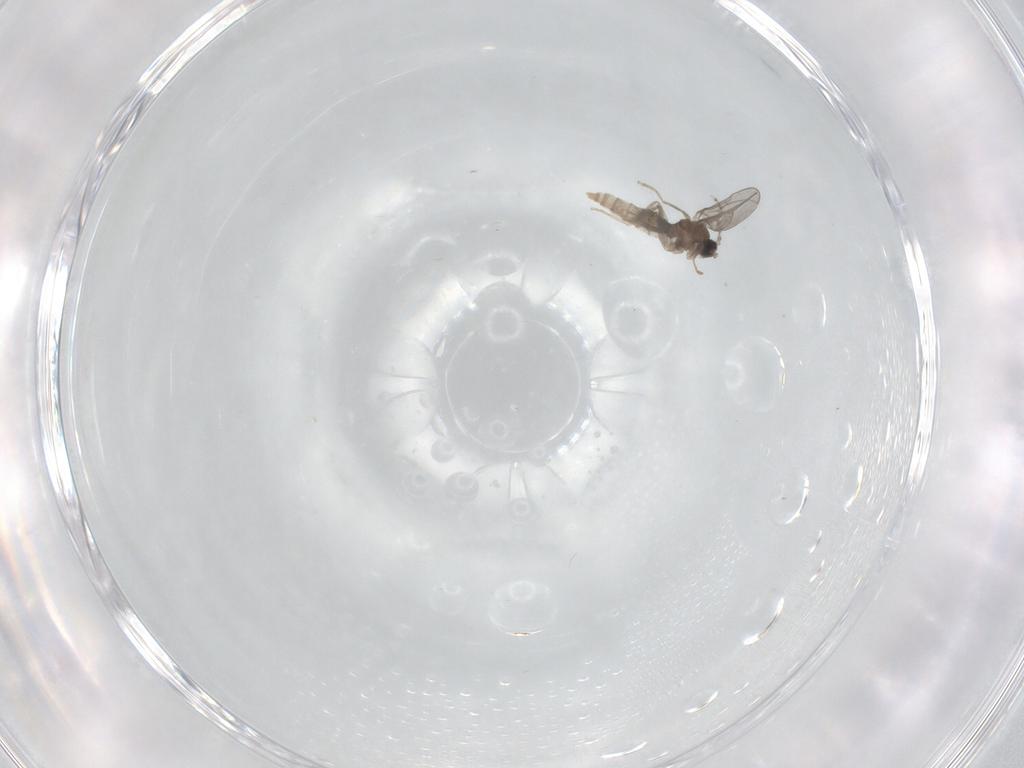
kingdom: Animalia
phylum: Arthropoda
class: Insecta
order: Diptera
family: Cecidomyiidae
